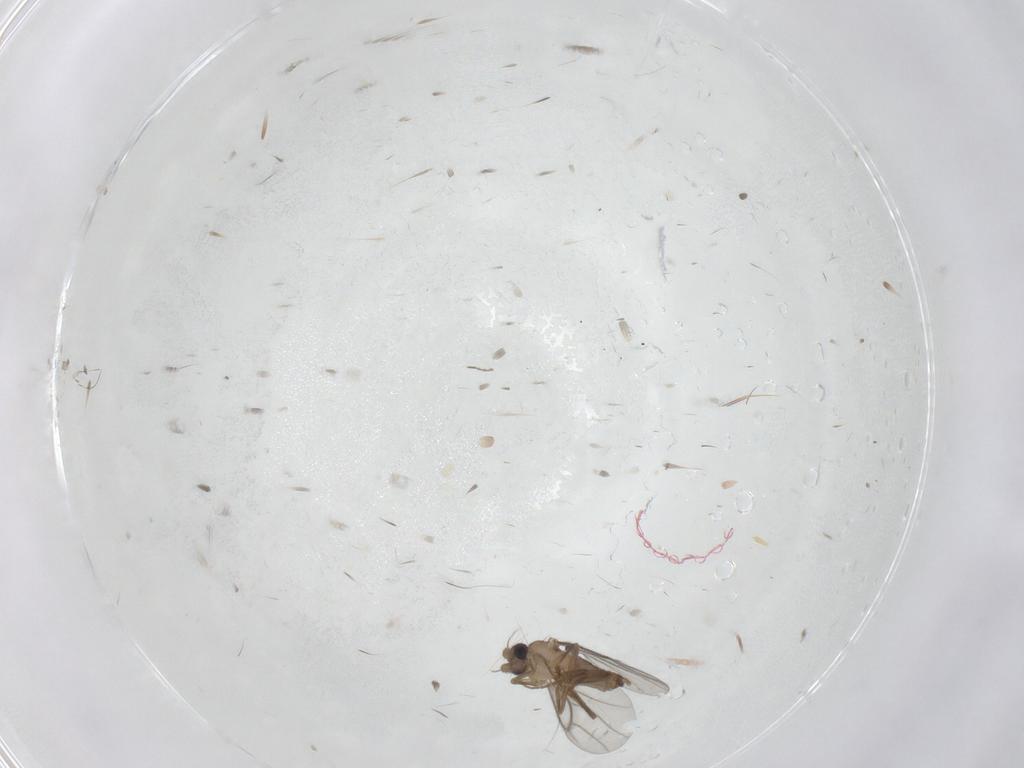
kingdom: Animalia
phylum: Arthropoda
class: Insecta
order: Diptera
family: Chironomidae
